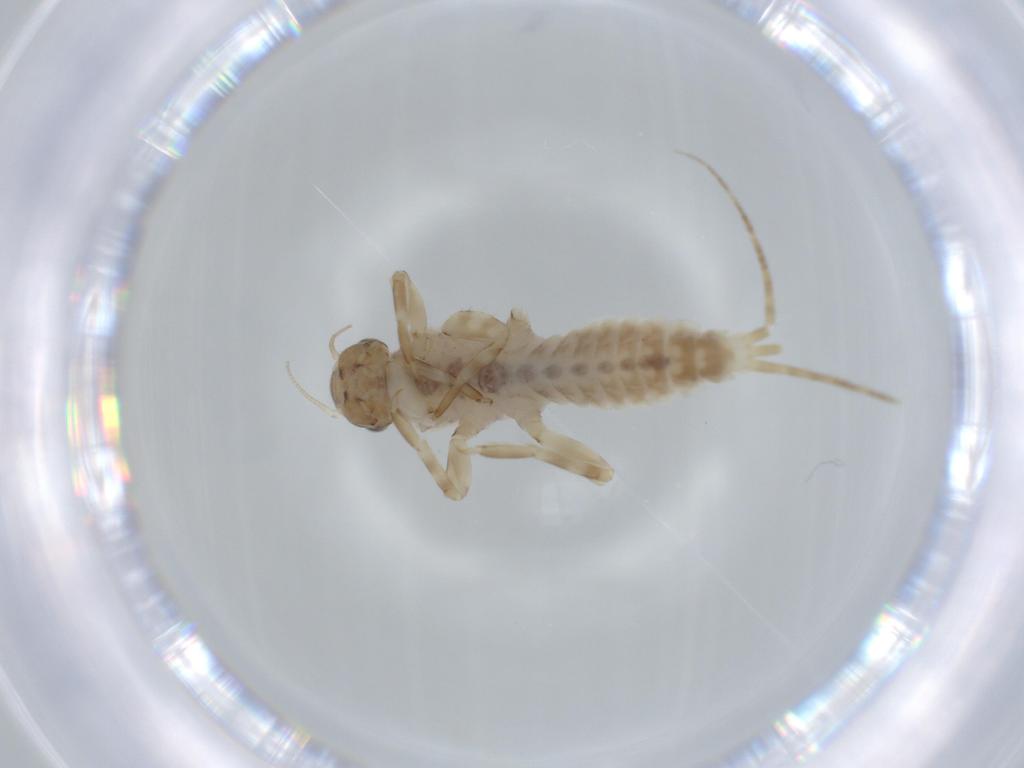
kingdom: Animalia
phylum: Arthropoda
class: Insecta
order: Ephemeroptera
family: Ephemerellidae
